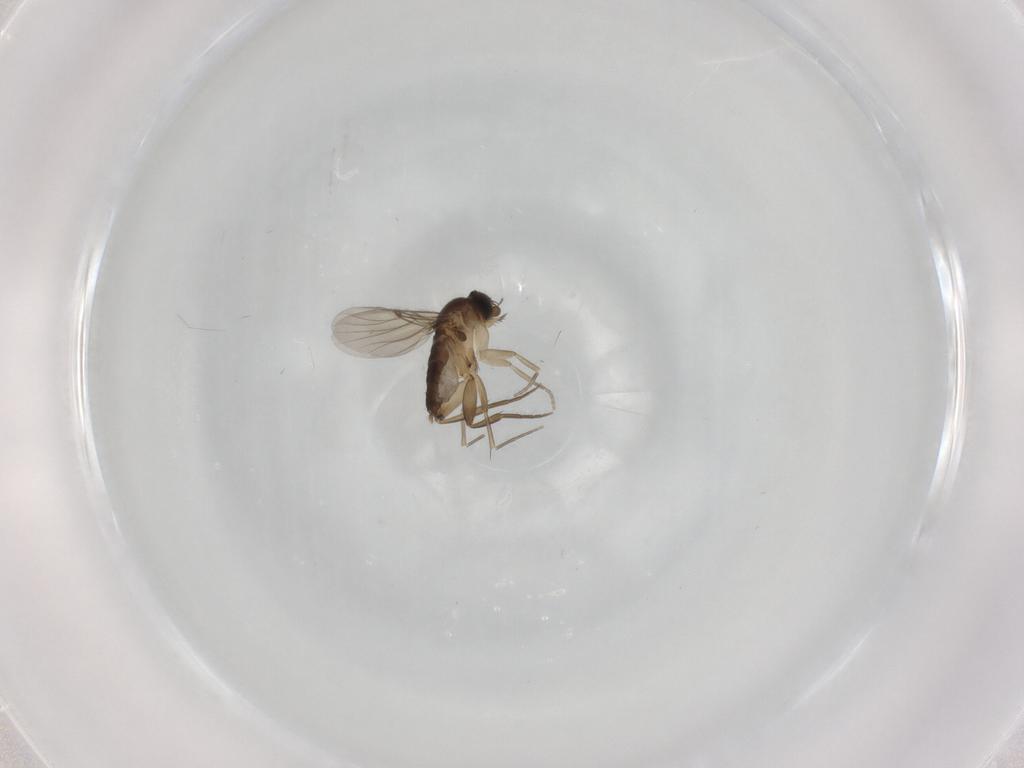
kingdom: Animalia
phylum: Arthropoda
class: Insecta
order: Diptera
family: Phoridae
